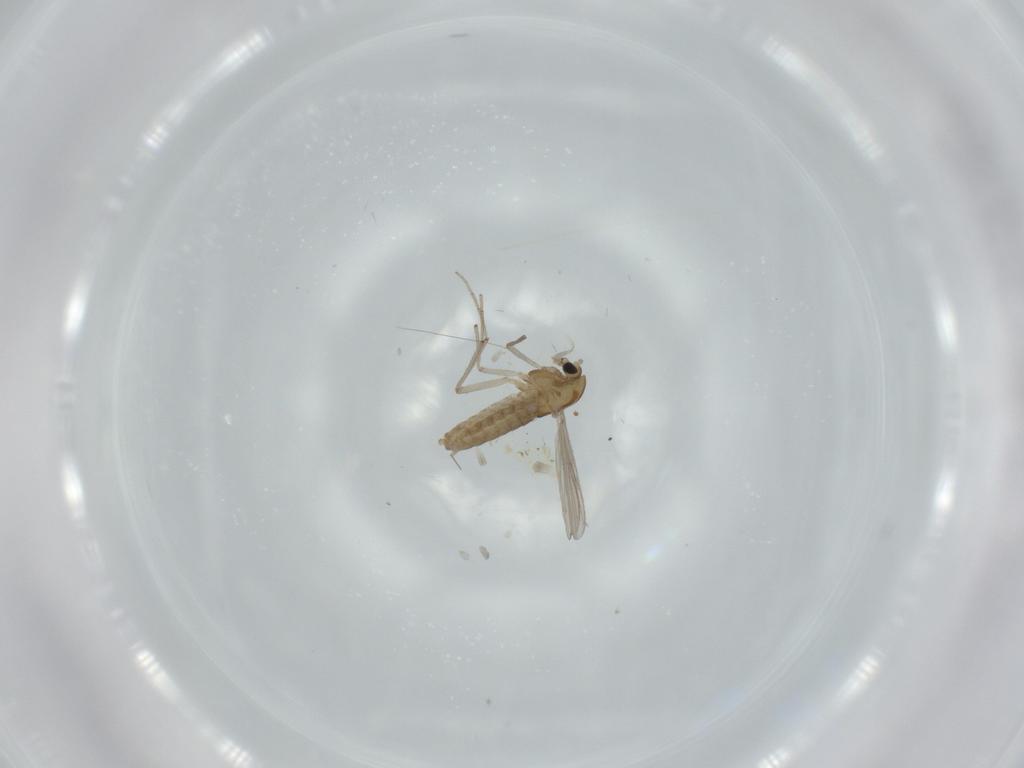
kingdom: Animalia
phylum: Arthropoda
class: Insecta
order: Diptera
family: Chironomidae
